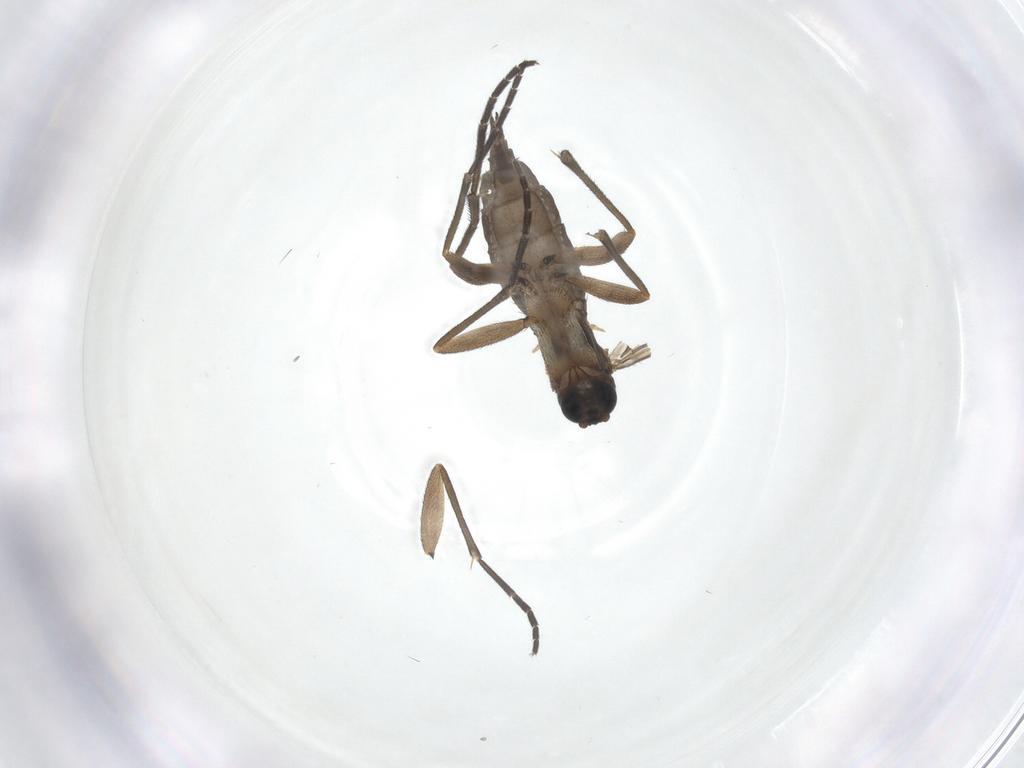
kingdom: Animalia
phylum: Arthropoda
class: Insecta
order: Diptera
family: Sciaridae
